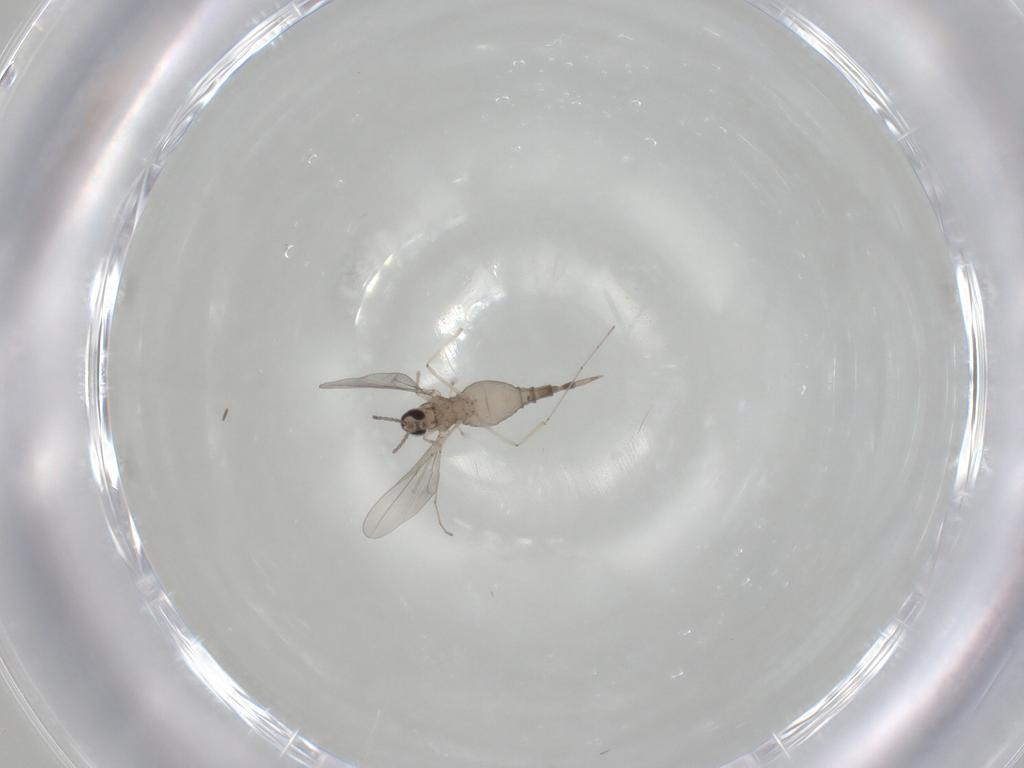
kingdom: Animalia
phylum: Arthropoda
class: Insecta
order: Diptera
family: Cecidomyiidae
